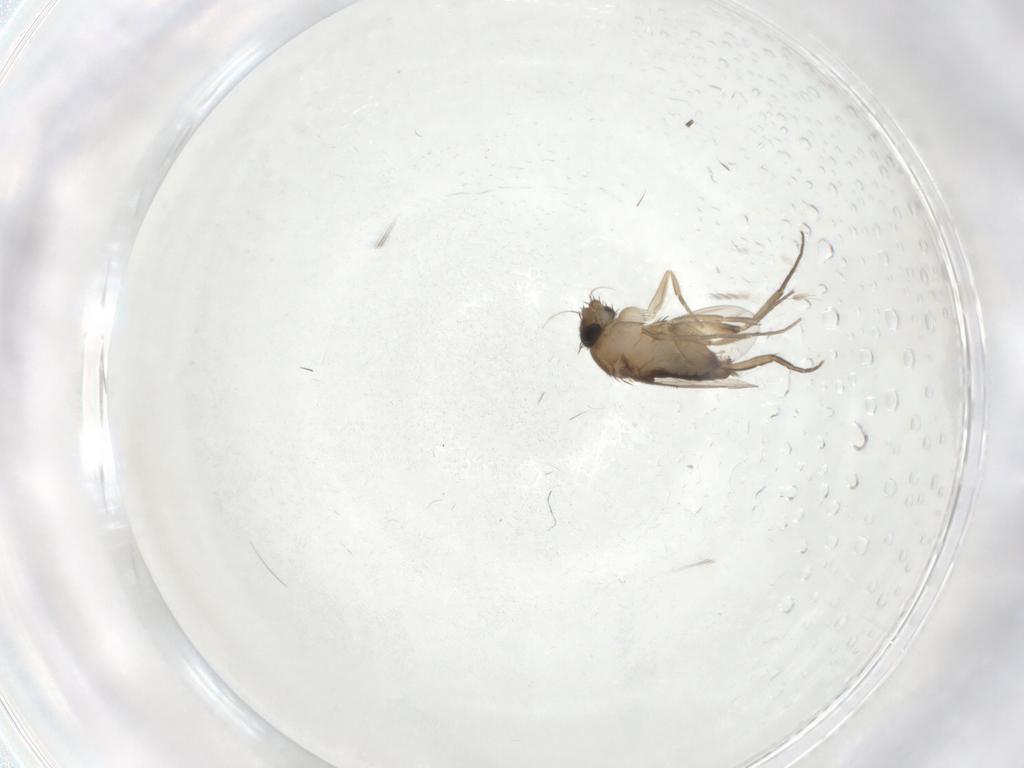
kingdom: Animalia
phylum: Arthropoda
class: Insecta
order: Diptera
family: Phoridae
